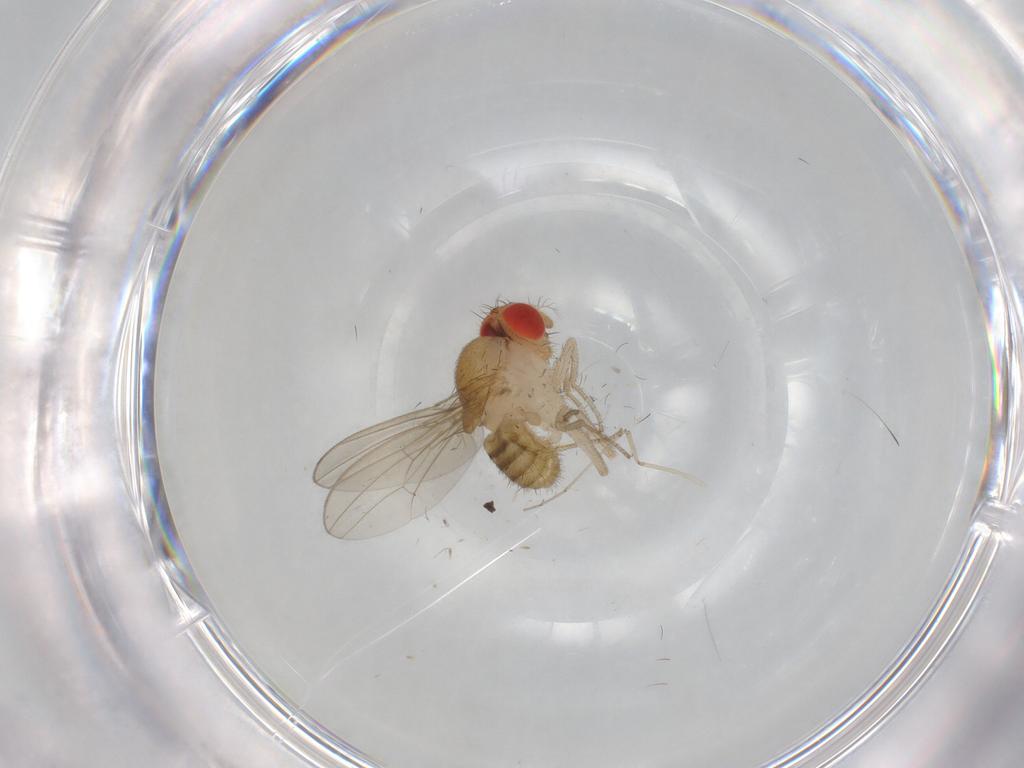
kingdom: Animalia
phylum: Arthropoda
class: Insecta
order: Diptera
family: Drosophilidae
